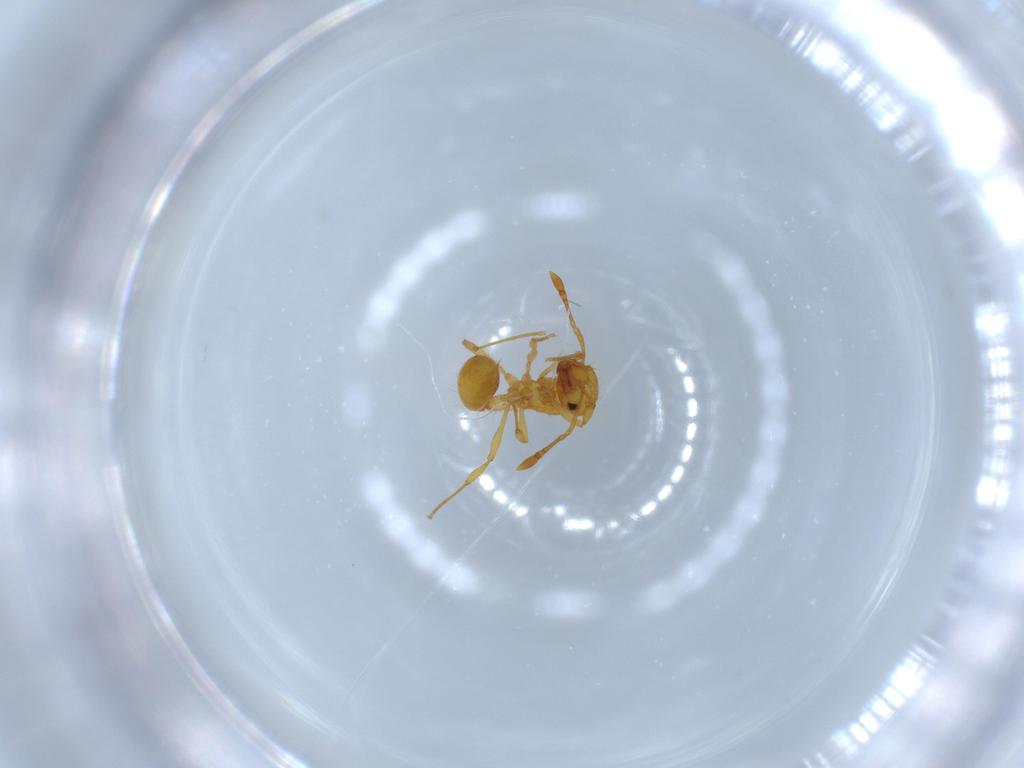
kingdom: Animalia
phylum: Arthropoda
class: Insecta
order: Hymenoptera
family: Formicidae
